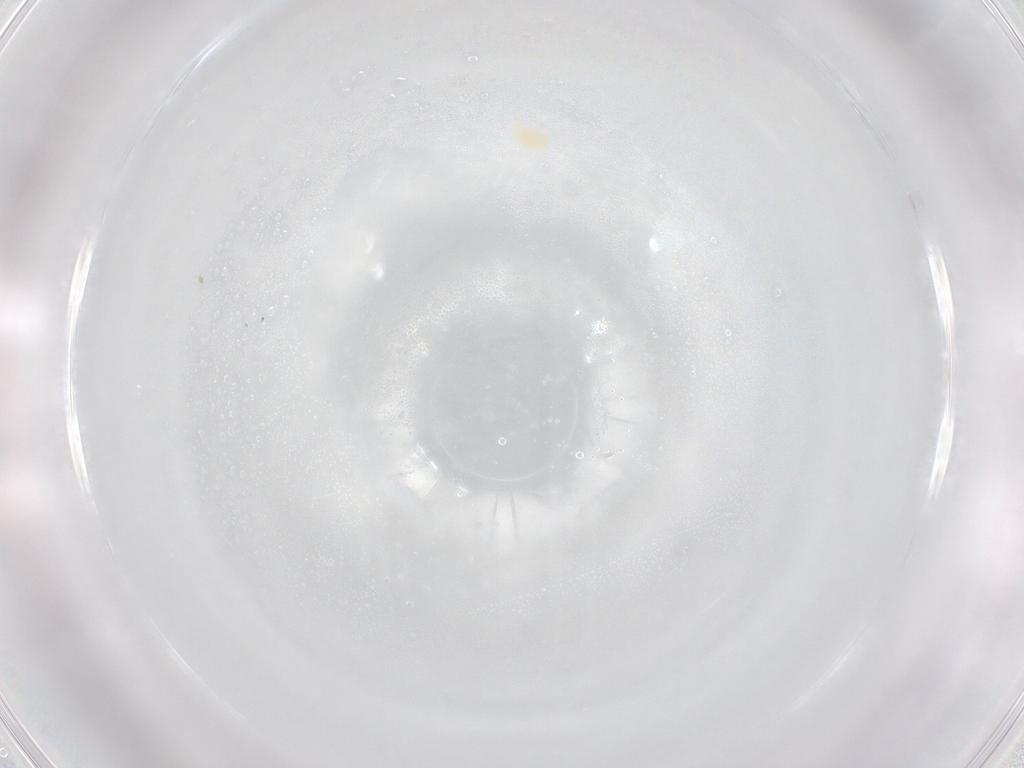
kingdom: Animalia
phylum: Arthropoda
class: Arachnida
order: Trombidiformes
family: Eupodidae
